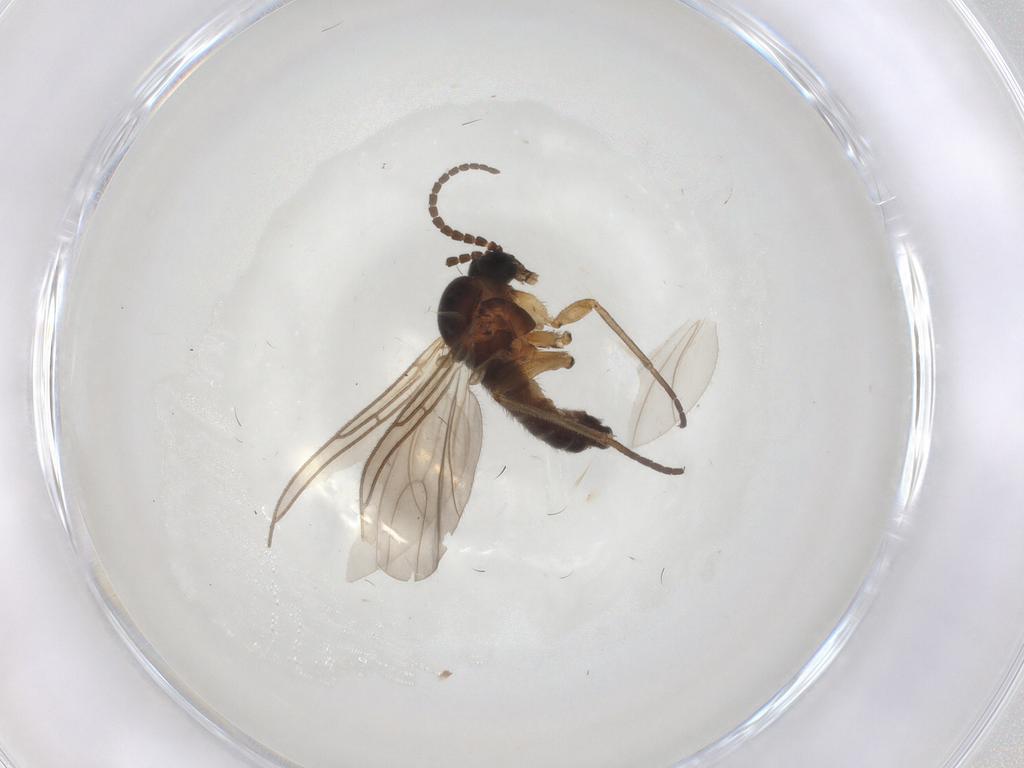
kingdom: Animalia
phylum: Arthropoda
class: Insecta
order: Diptera
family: Sciaridae
